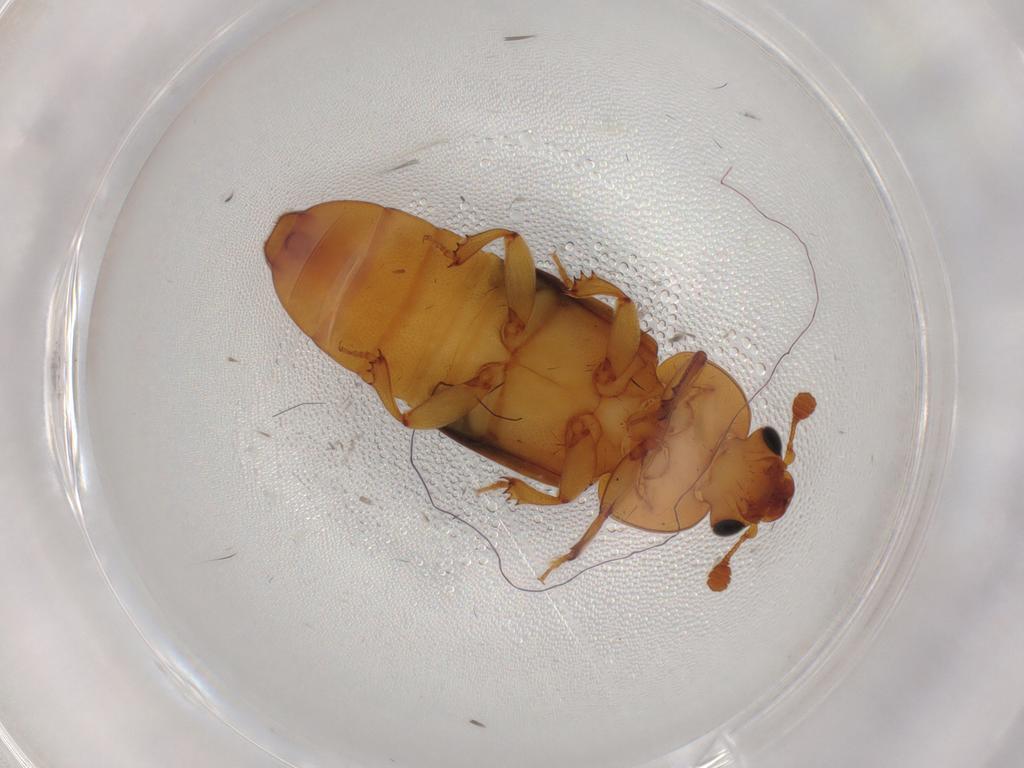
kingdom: Animalia
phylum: Arthropoda
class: Insecta
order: Coleoptera
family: Nitidulidae
